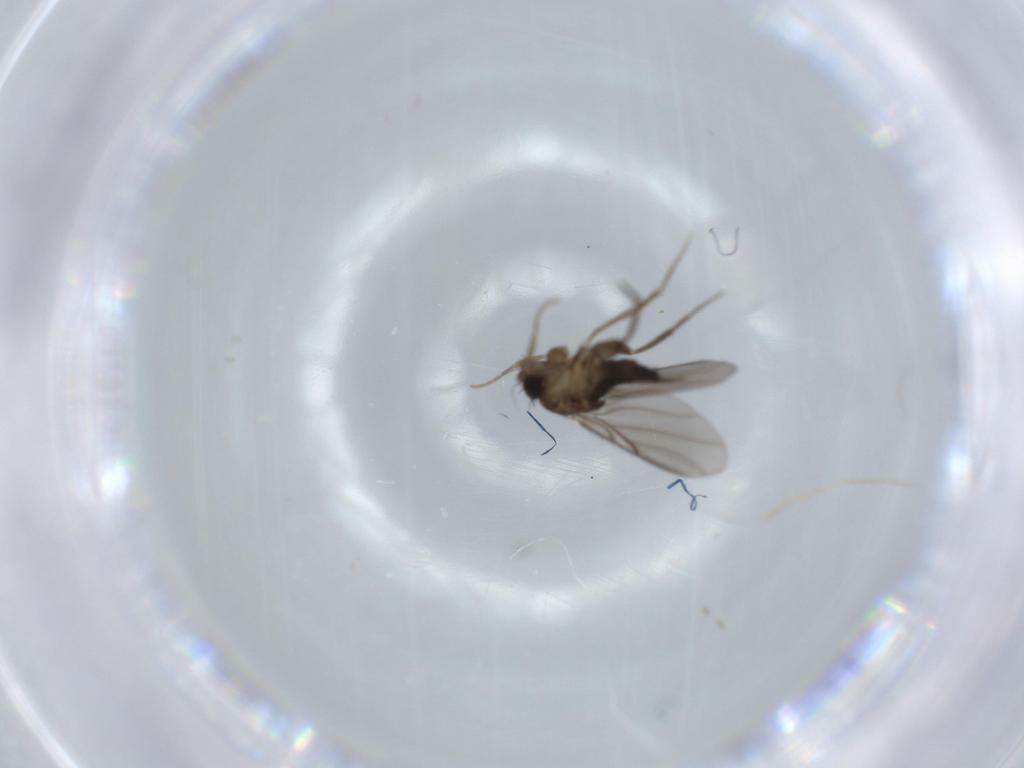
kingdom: Animalia
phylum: Arthropoda
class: Insecta
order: Diptera
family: Phoridae
